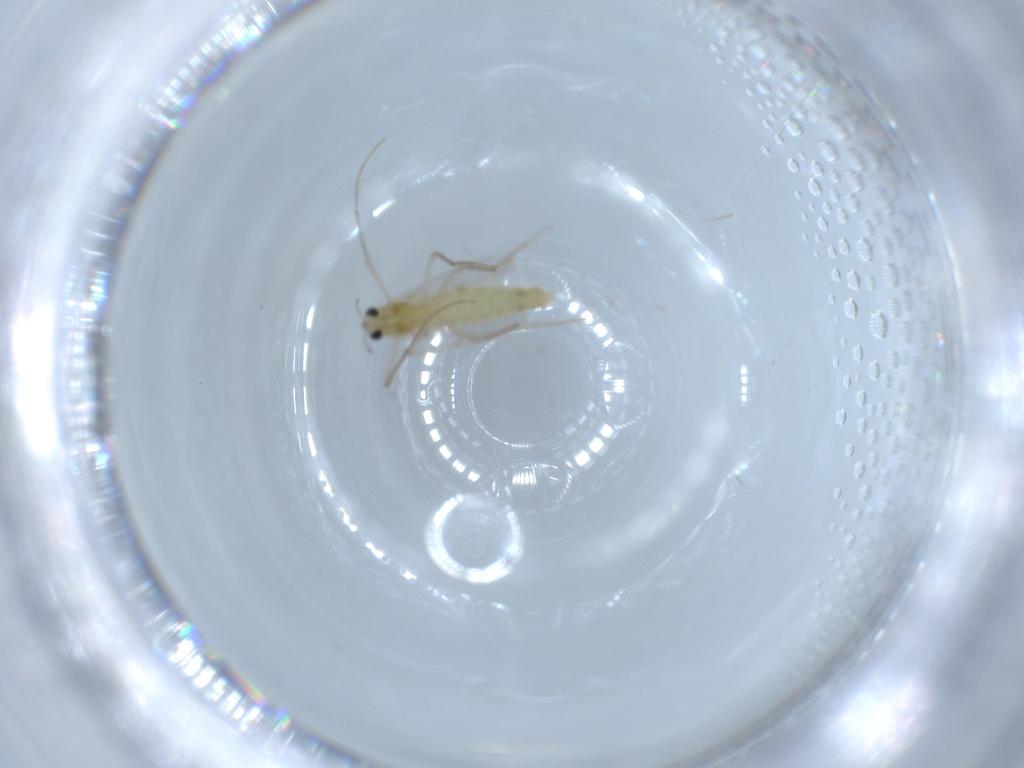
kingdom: Animalia
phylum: Arthropoda
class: Insecta
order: Diptera
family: Chironomidae
